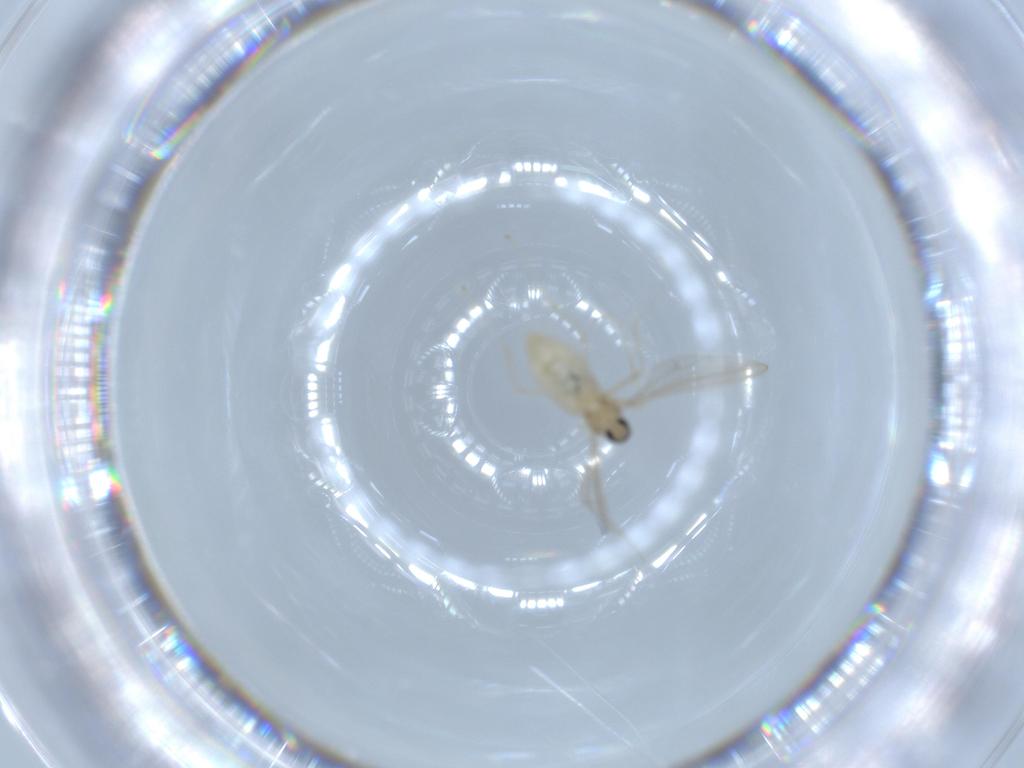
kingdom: Animalia
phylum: Arthropoda
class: Insecta
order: Diptera
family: Cecidomyiidae
